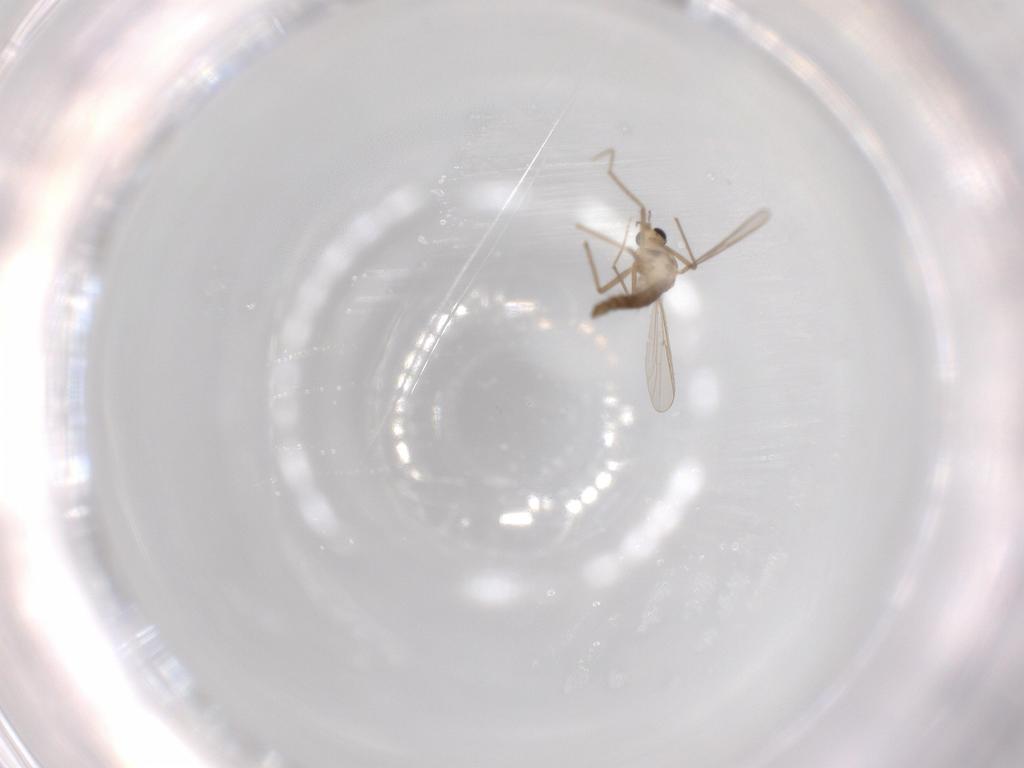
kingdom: Animalia
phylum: Arthropoda
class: Insecta
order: Diptera
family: Chironomidae
